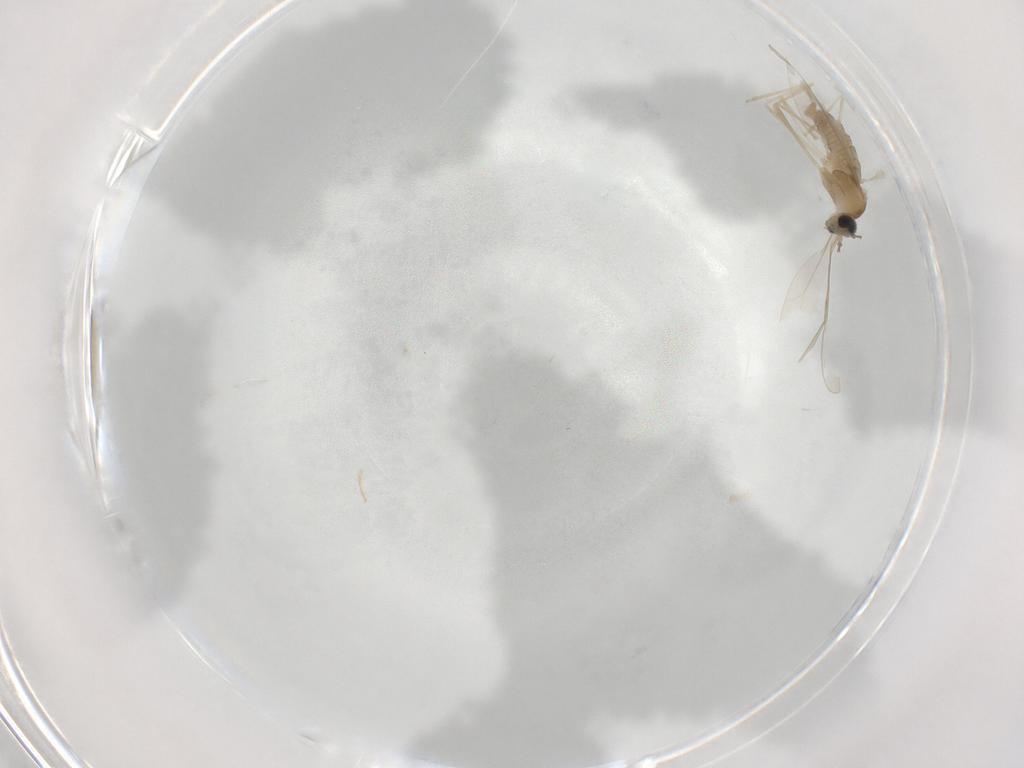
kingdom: Animalia
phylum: Arthropoda
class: Insecta
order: Diptera
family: Cecidomyiidae
